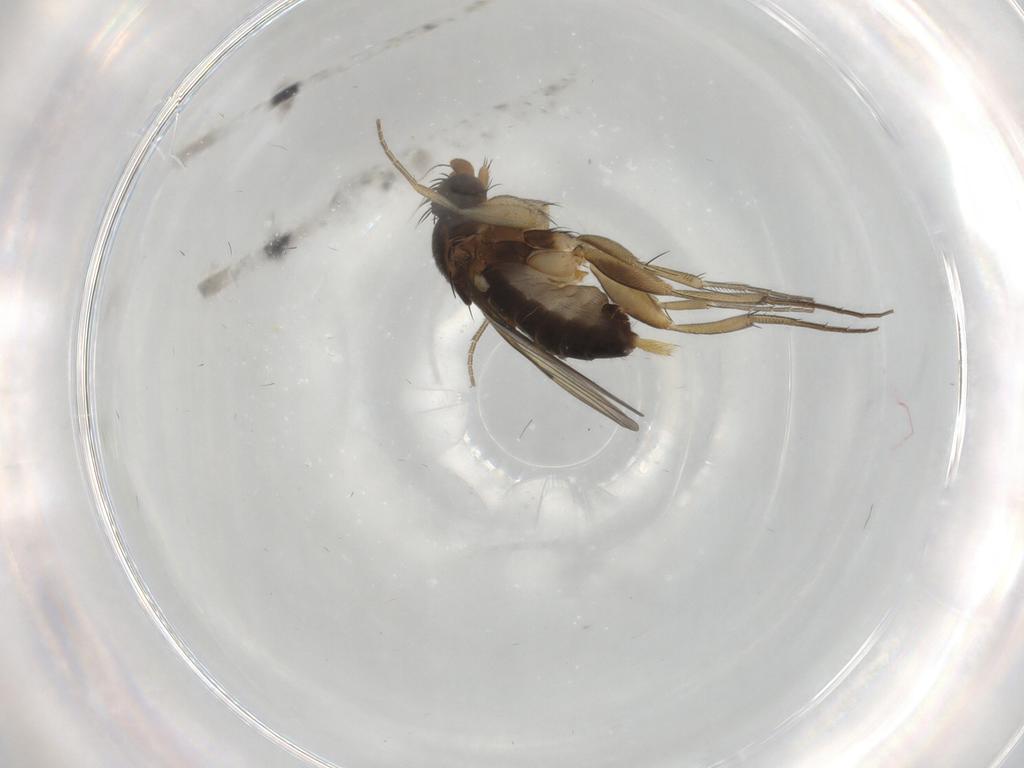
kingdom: Animalia
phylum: Arthropoda
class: Insecta
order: Diptera
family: Phoridae
